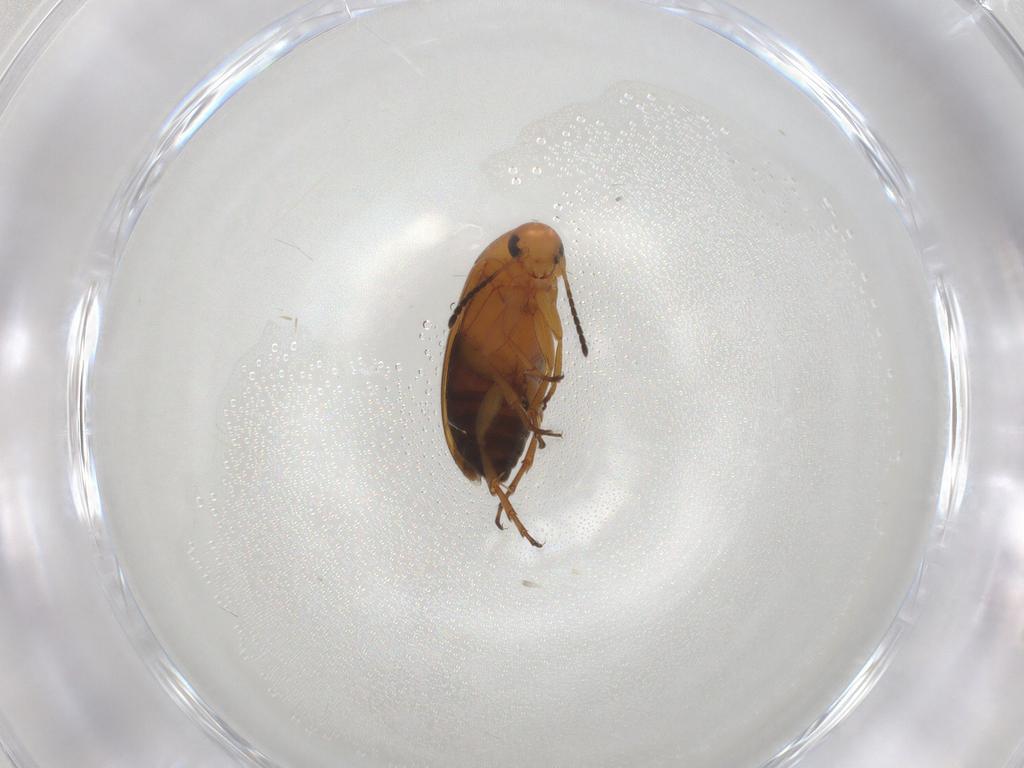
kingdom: Animalia
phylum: Arthropoda
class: Insecta
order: Coleoptera
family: Scraptiidae
